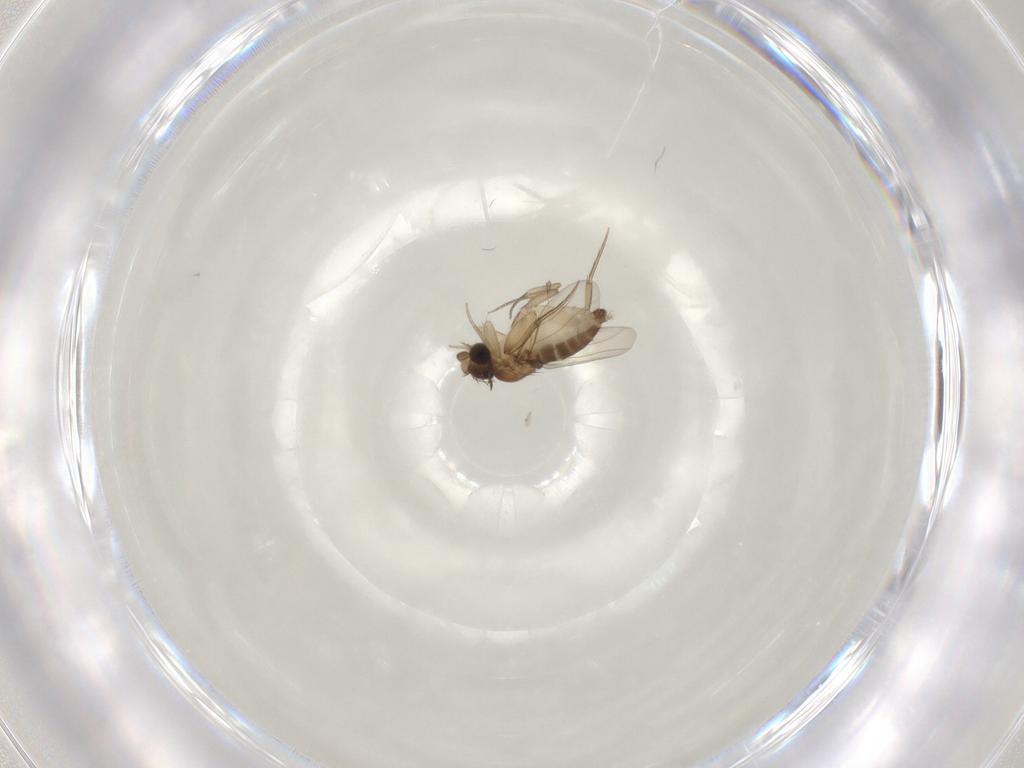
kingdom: Animalia
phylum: Arthropoda
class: Insecta
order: Diptera
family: Phoridae
